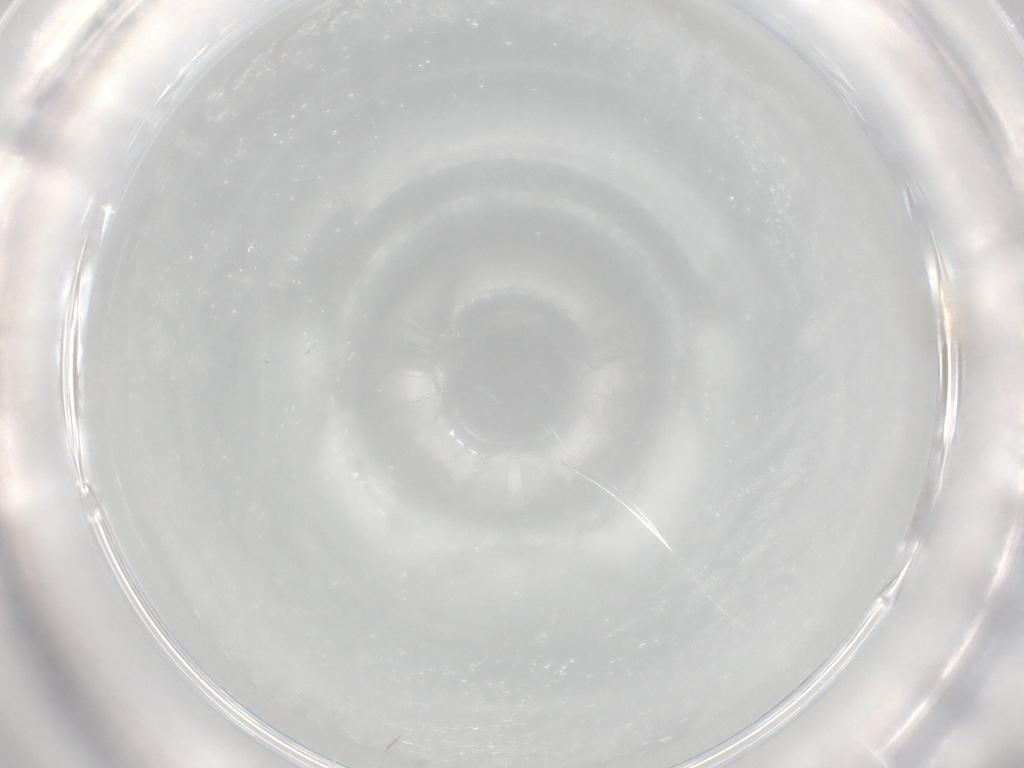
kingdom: Animalia
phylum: Arthropoda
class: Insecta
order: Diptera
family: Cecidomyiidae
